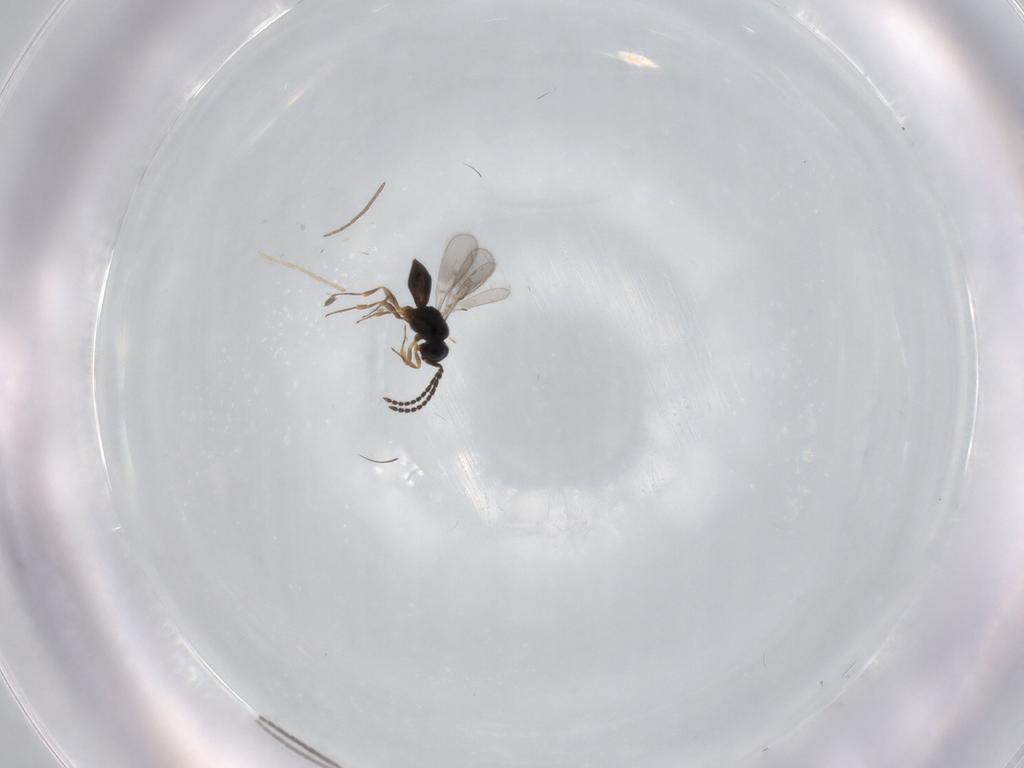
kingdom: Animalia
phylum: Arthropoda
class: Insecta
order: Hymenoptera
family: Scelionidae
